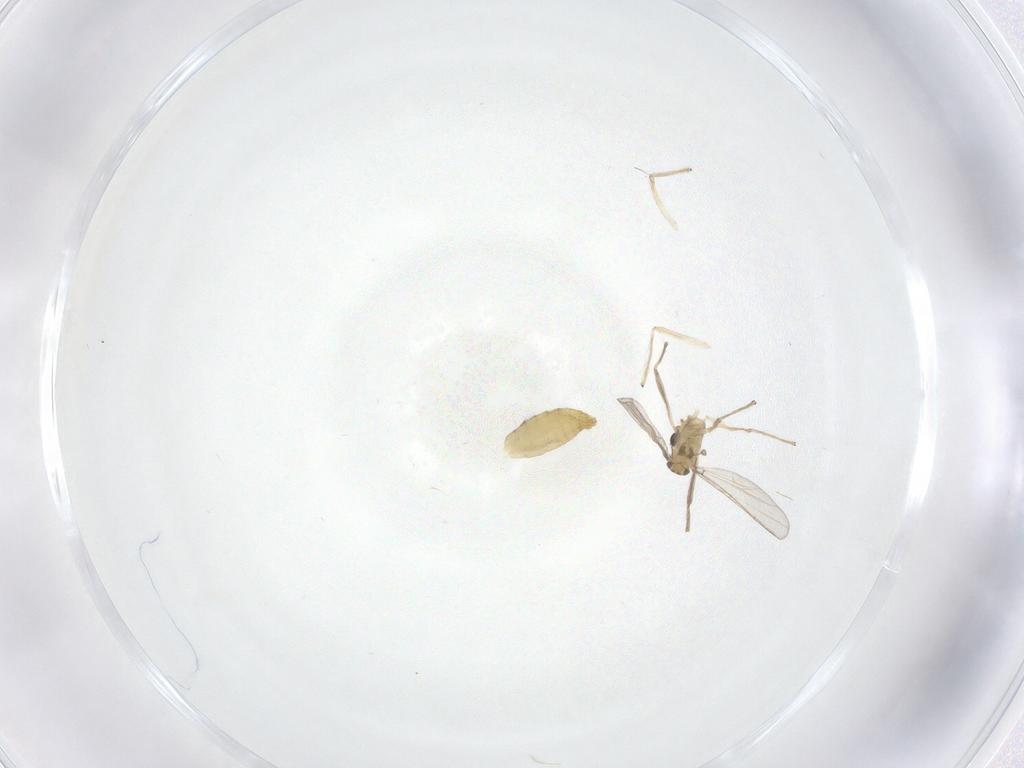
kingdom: Animalia
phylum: Arthropoda
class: Insecta
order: Diptera
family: Chironomidae
